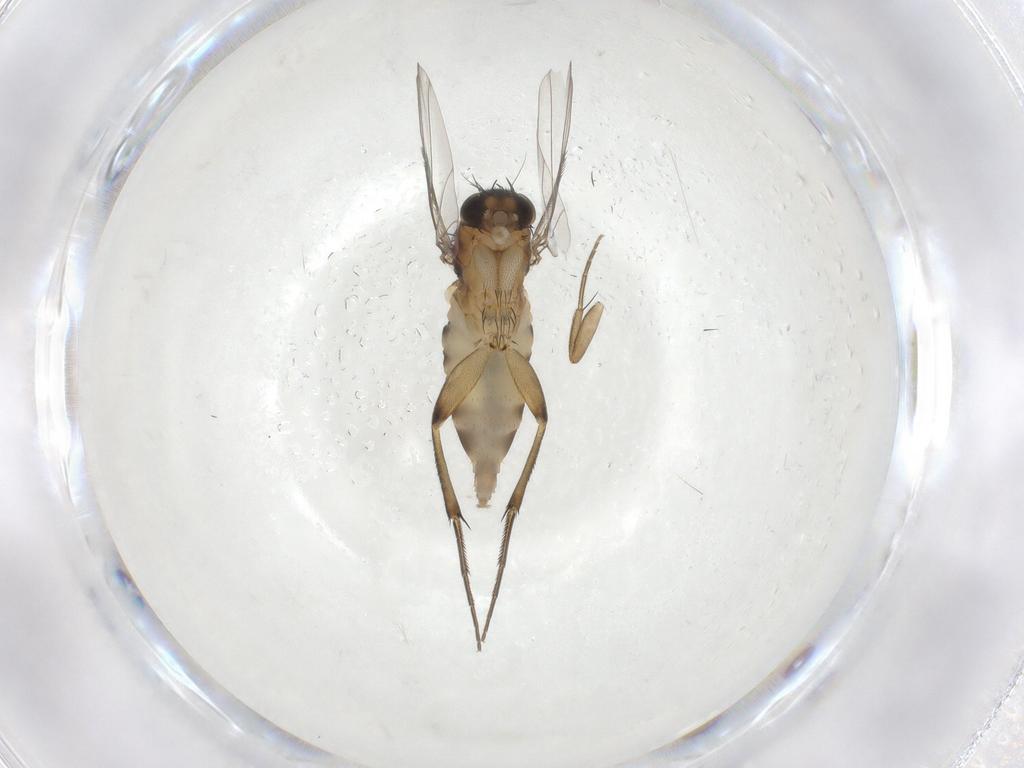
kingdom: Animalia
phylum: Arthropoda
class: Insecta
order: Diptera
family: Phoridae
